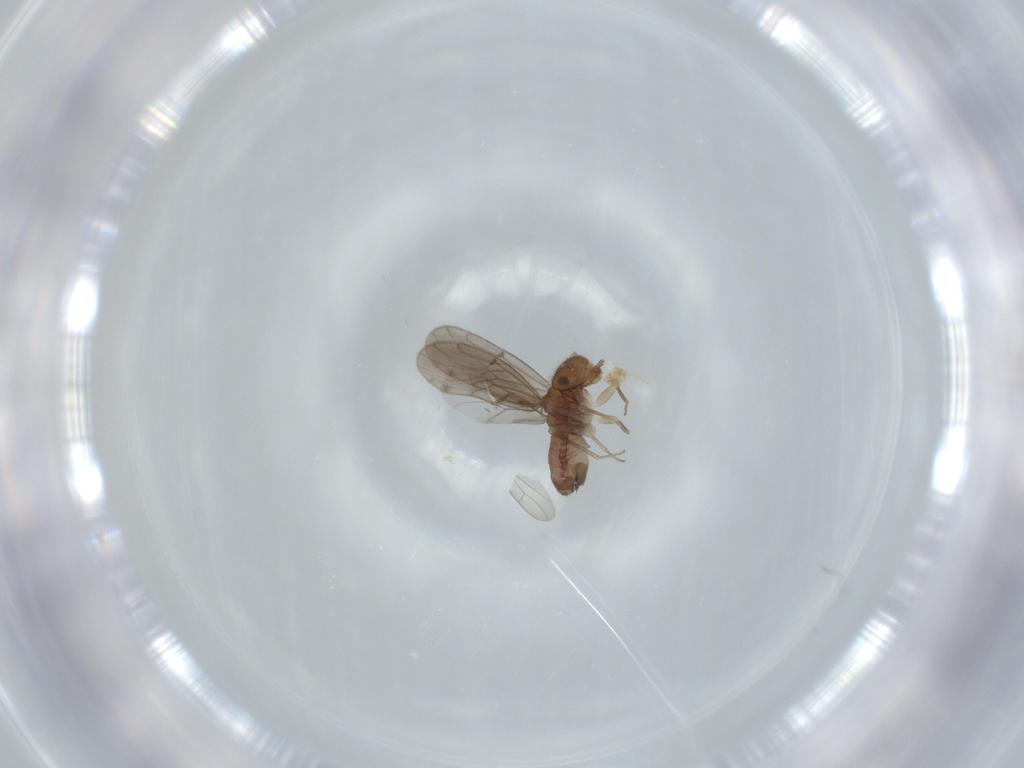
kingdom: Animalia
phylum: Arthropoda
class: Insecta
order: Psocodea
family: Ectopsocidae
